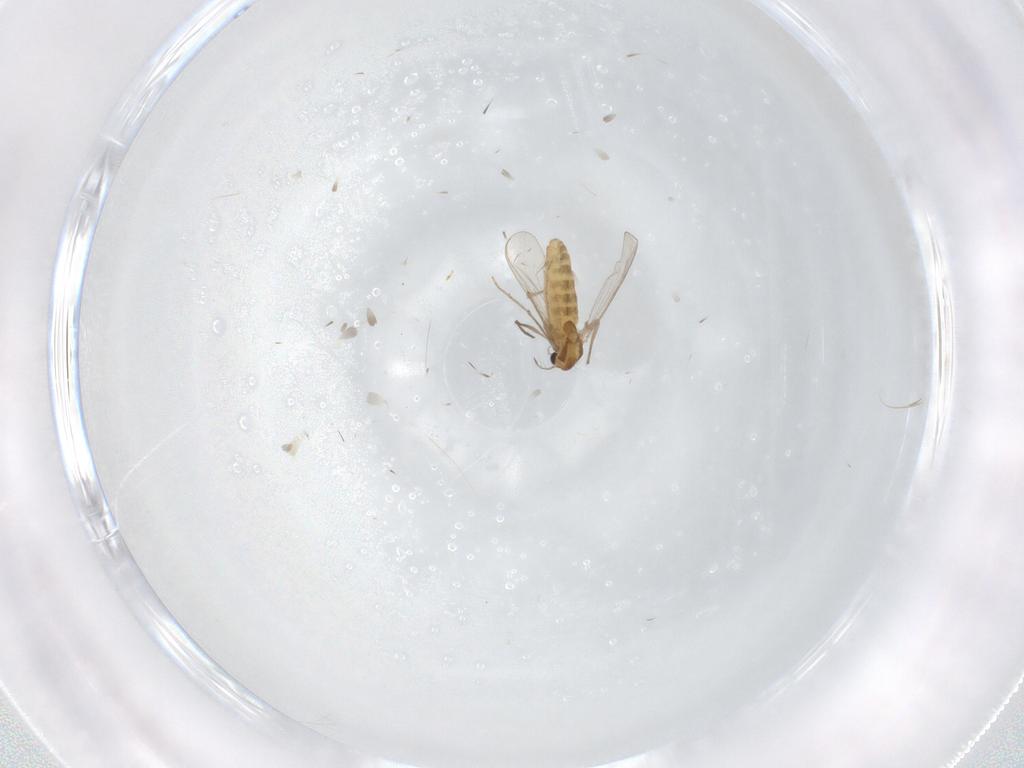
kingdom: Animalia
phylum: Arthropoda
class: Insecta
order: Diptera
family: Chironomidae
